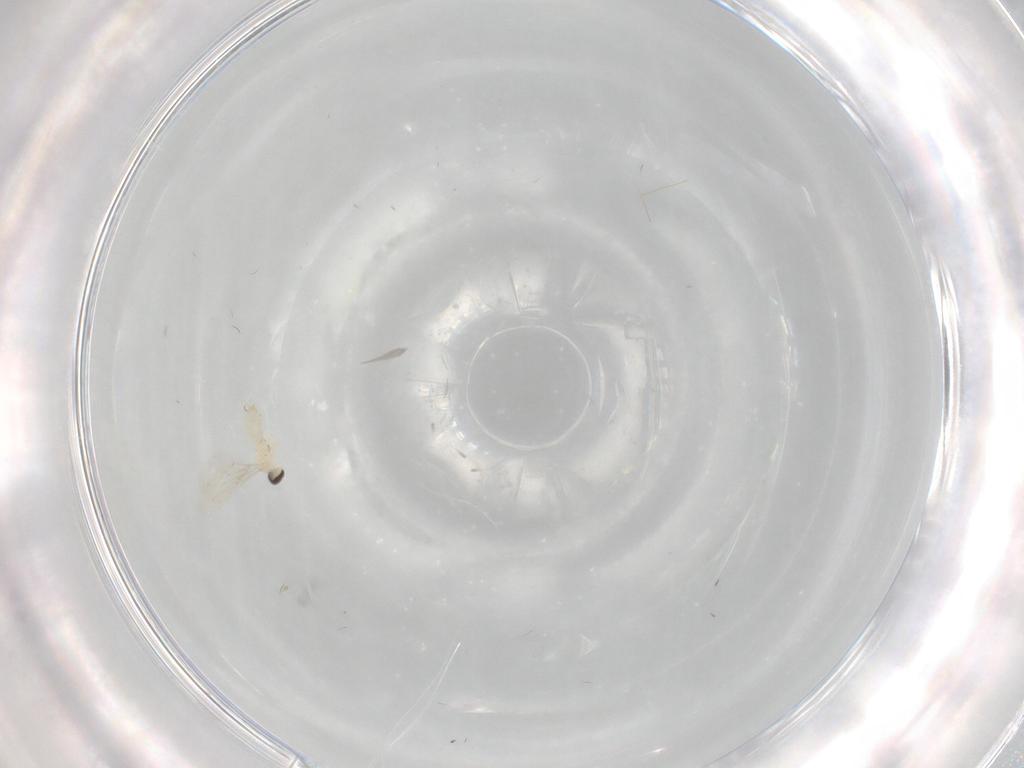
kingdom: Animalia
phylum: Arthropoda
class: Insecta
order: Diptera
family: Cecidomyiidae
